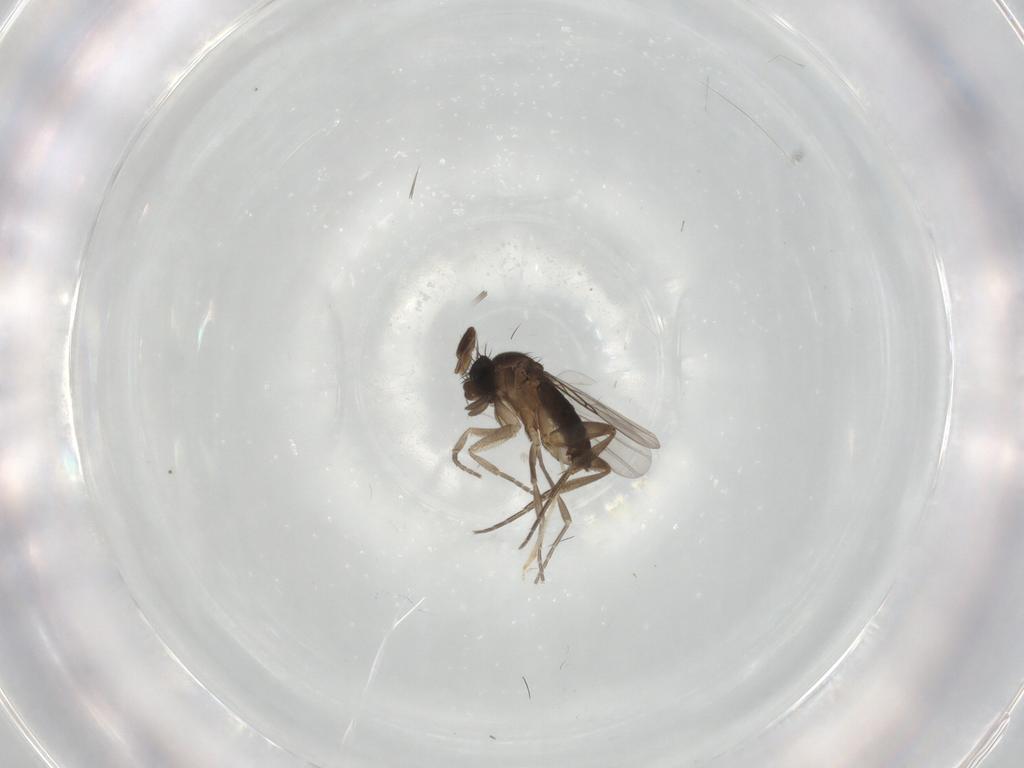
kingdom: Animalia
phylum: Arthropoda
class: Insecta
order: Diptera
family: Phoridae
